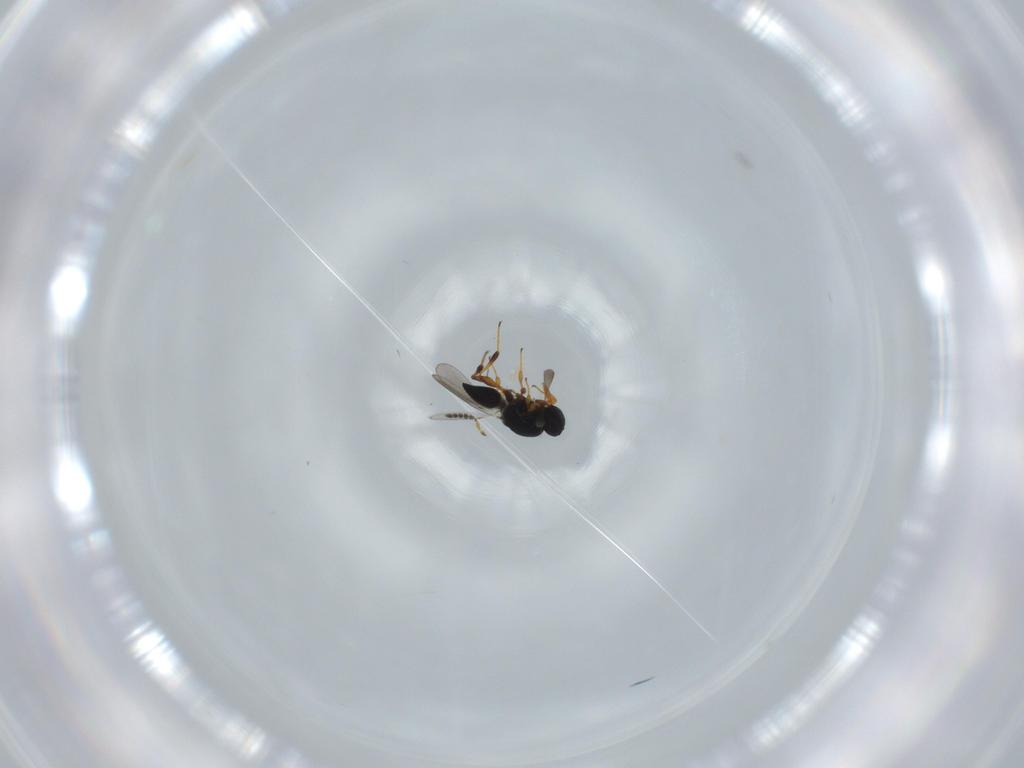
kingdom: Animalia
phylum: Arthropoda
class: Insecta
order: Hymenoptera
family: Platygastridae
